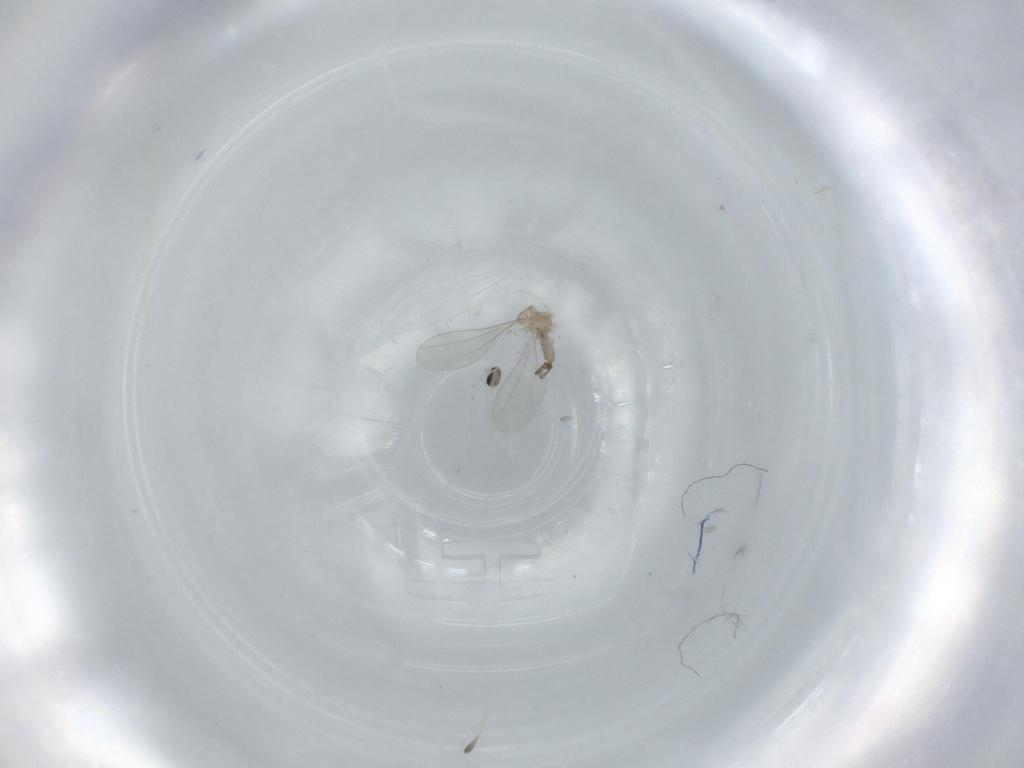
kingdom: Animalia
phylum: Arthropoda
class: Insecta
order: Diptera
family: Cecidomyiidae
